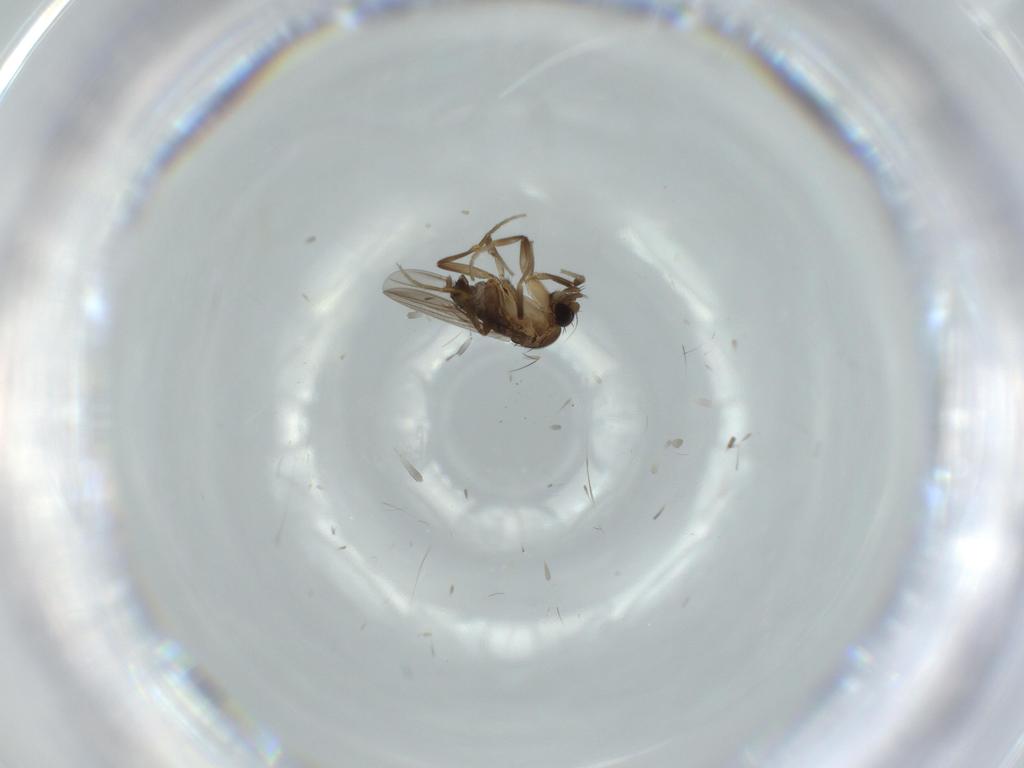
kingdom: Animalia
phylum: Arthropoda
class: Insecta
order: Diptera
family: Phoridae
